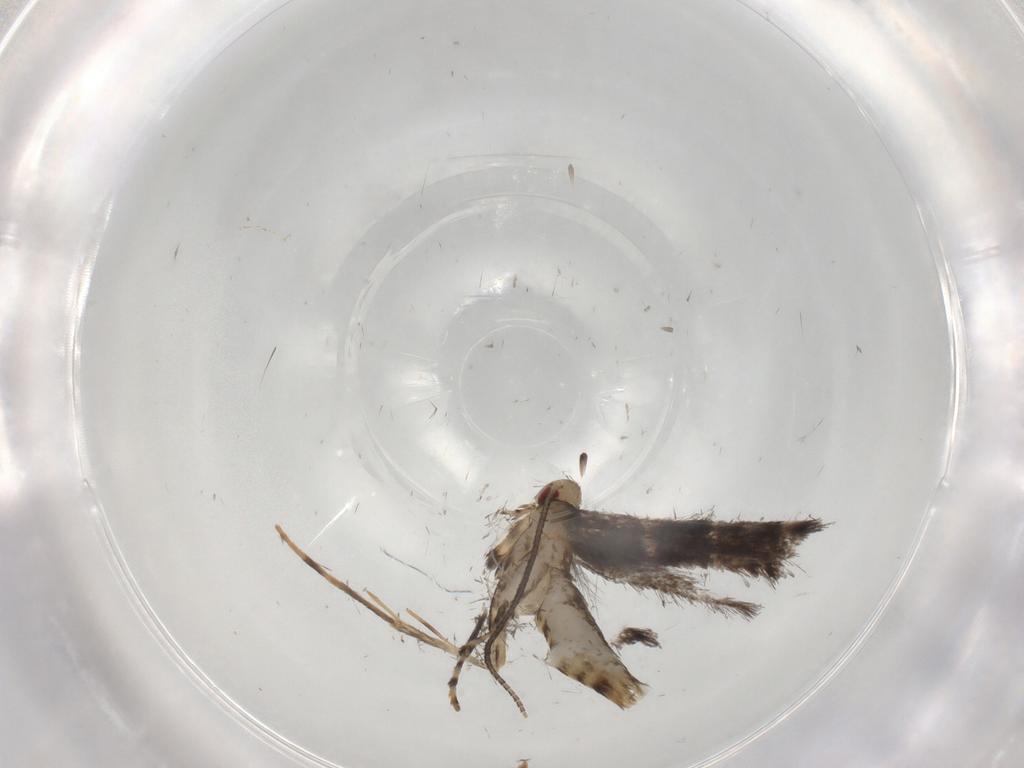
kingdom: Animalia
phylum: Arthropoda
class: Insecta
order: Lepidoptera
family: Gracillariidae
